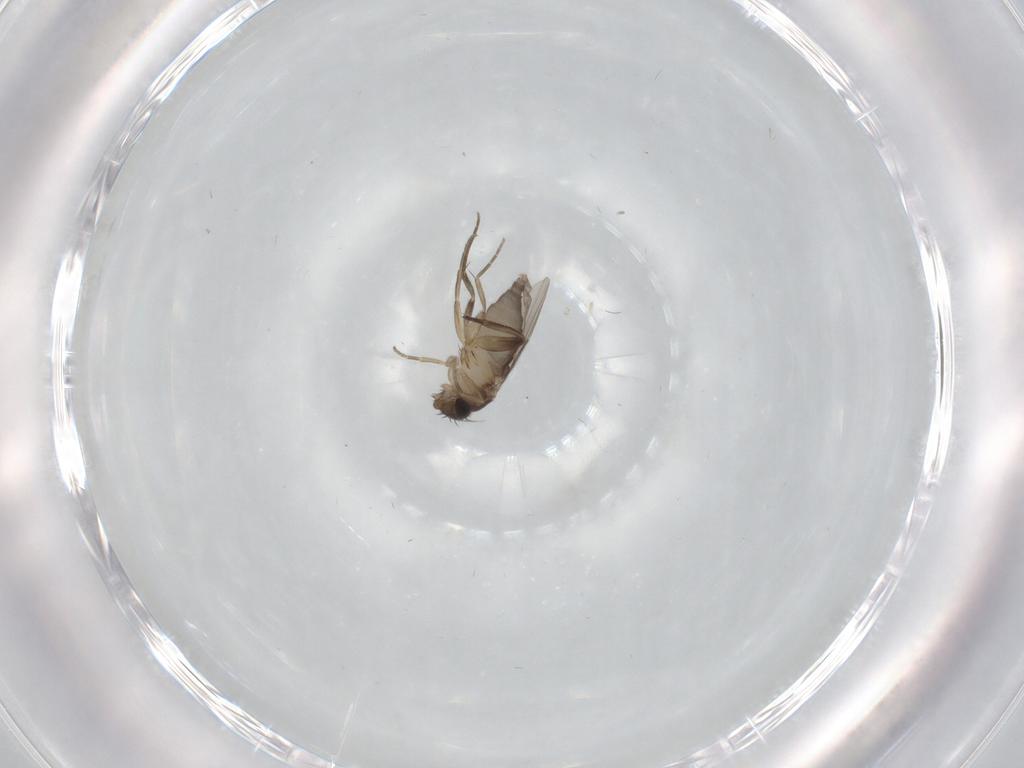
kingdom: Animalia
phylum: Arthropoda
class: Insecta
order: Diptera
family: Phoridae
